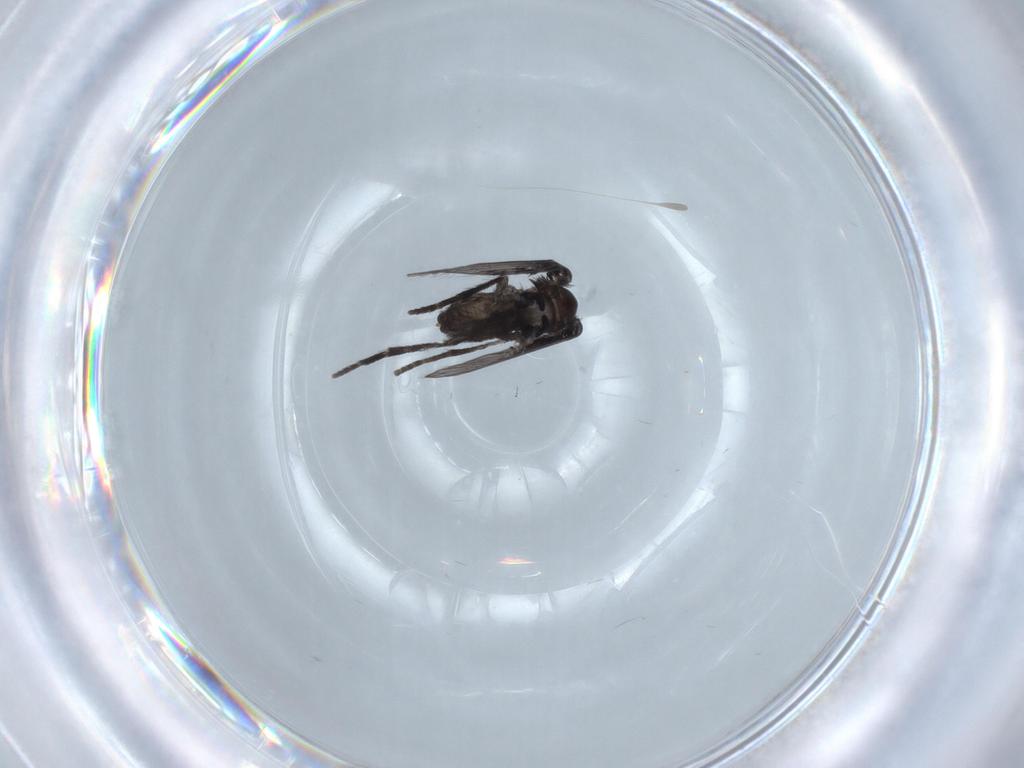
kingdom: Animalia
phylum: Arthropoda
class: Insecta
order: Diptera
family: Psychodidae
